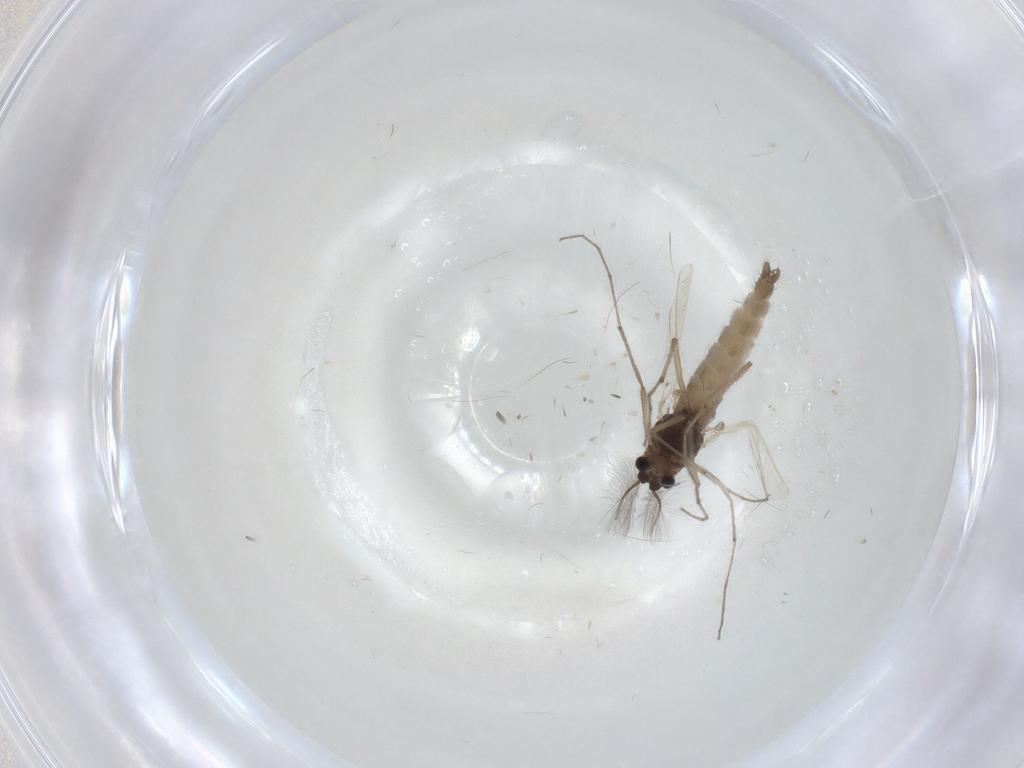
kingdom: Animalia
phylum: Arthropoda
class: Insecta
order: Diptera
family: Chironomidae
